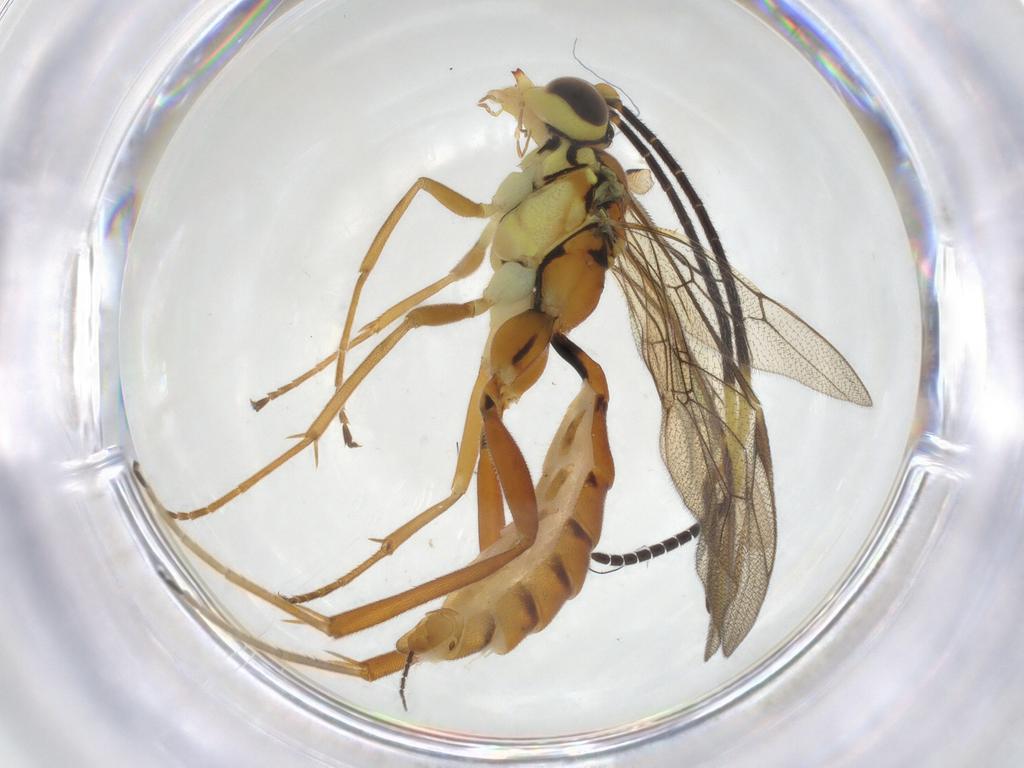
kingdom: Animalia
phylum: Arthropoda
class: Insecta
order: Hymenoptera
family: Ichneumonidae
